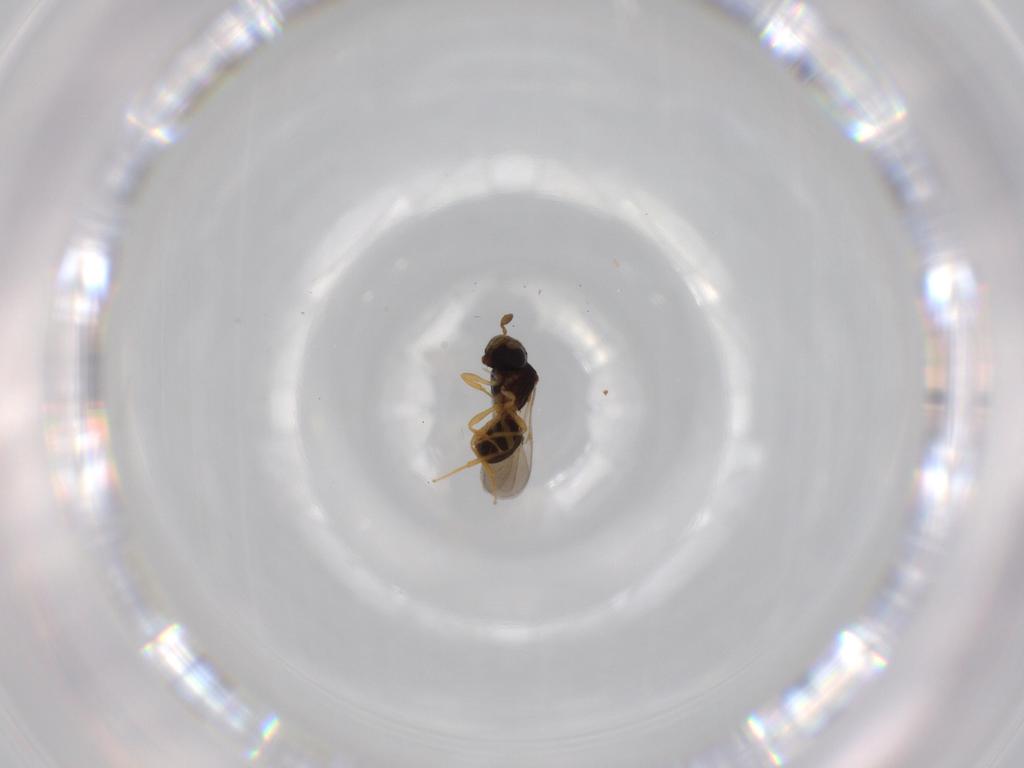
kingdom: Animalia
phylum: Arthropoda
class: Insecta
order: Hymenoptera
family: Scelionidae
